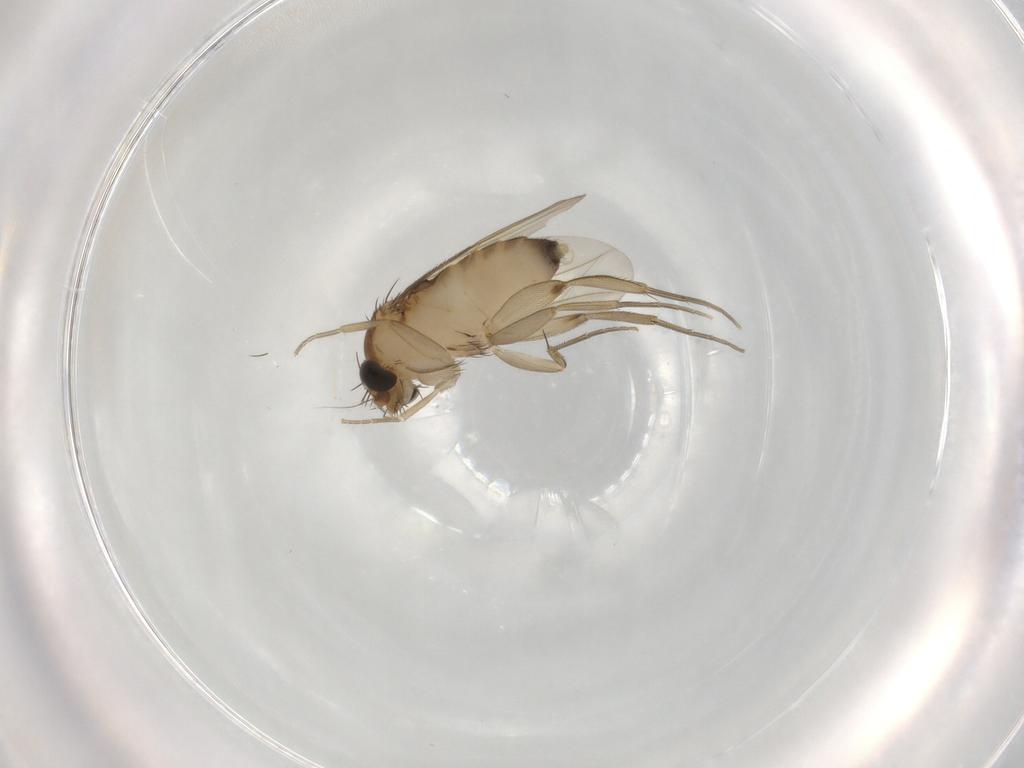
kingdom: Animalia
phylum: Arthropoda
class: Insecta
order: Diptera
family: Phoridae
